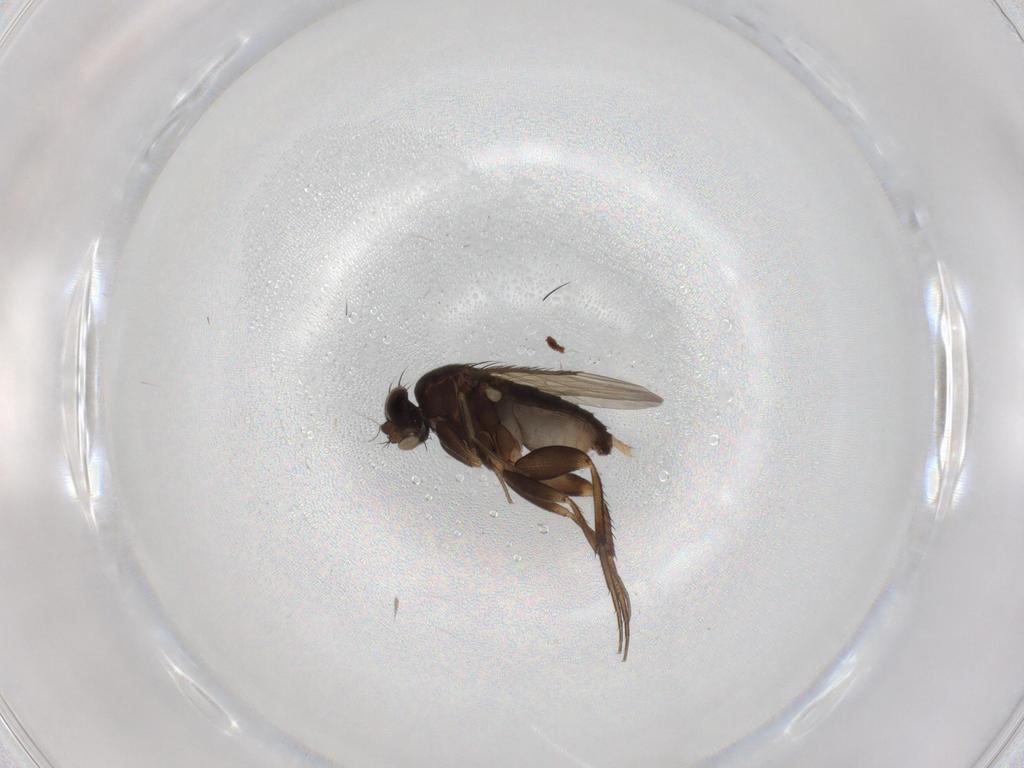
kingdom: Animalia
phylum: Arthropoda
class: Insecta
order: Diptera
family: Phoridae
